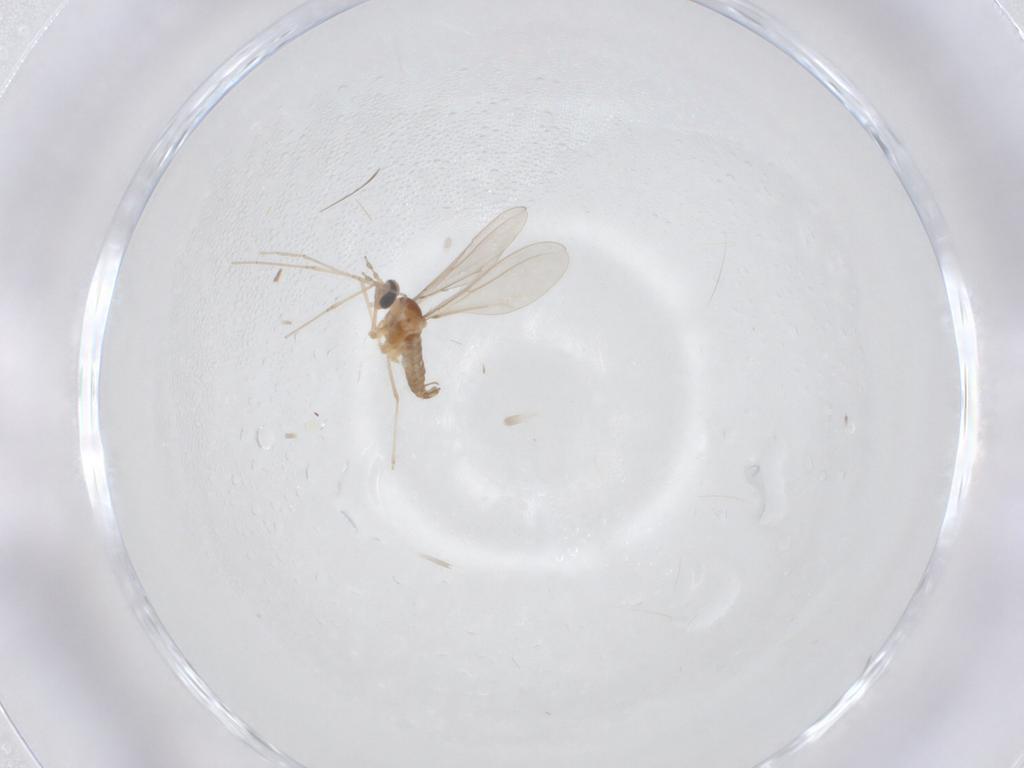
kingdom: Animalia
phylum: Arthropoda
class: Insecta
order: Diptera
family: Cecidomyiidae
